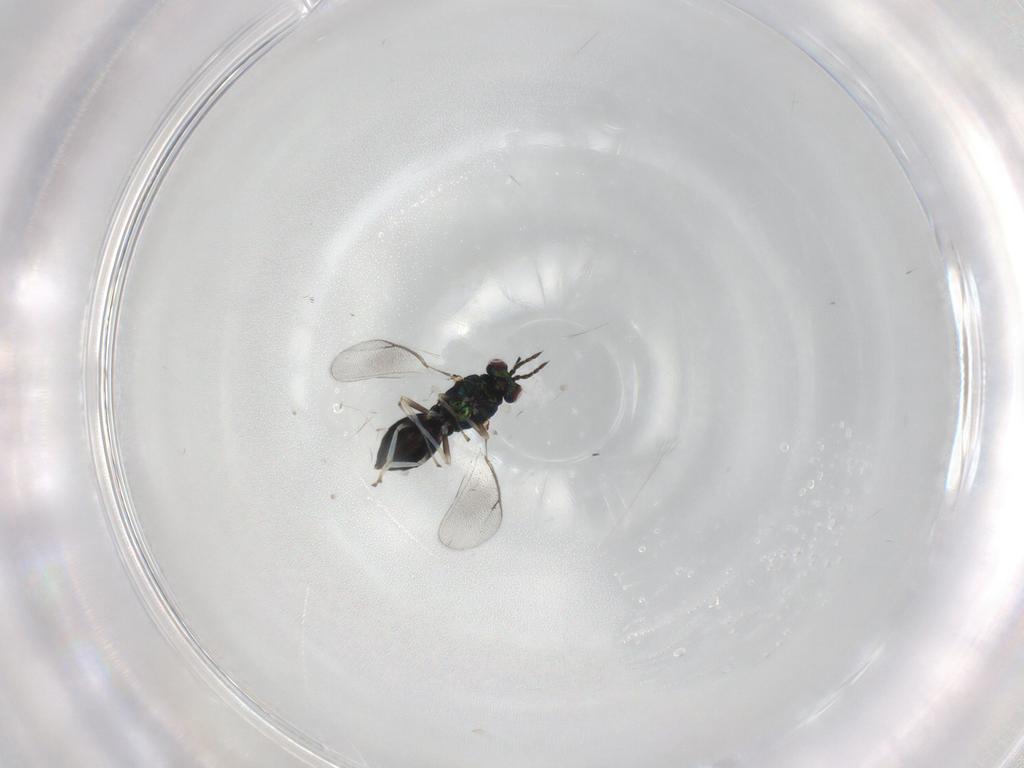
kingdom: Animalia
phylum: Arthropoda
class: Insecta
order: Hymenoptera
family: Eulophidae
